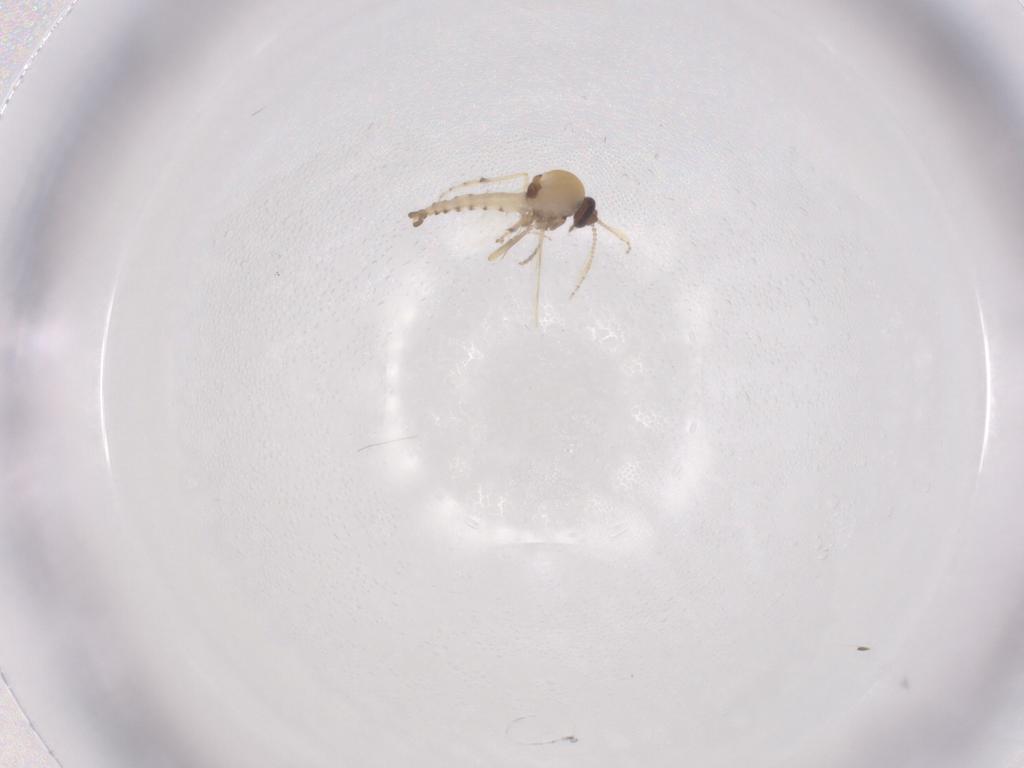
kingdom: Animalia
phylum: Arthropoda
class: Insecta
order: Diptera
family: Ceratopogonidae
